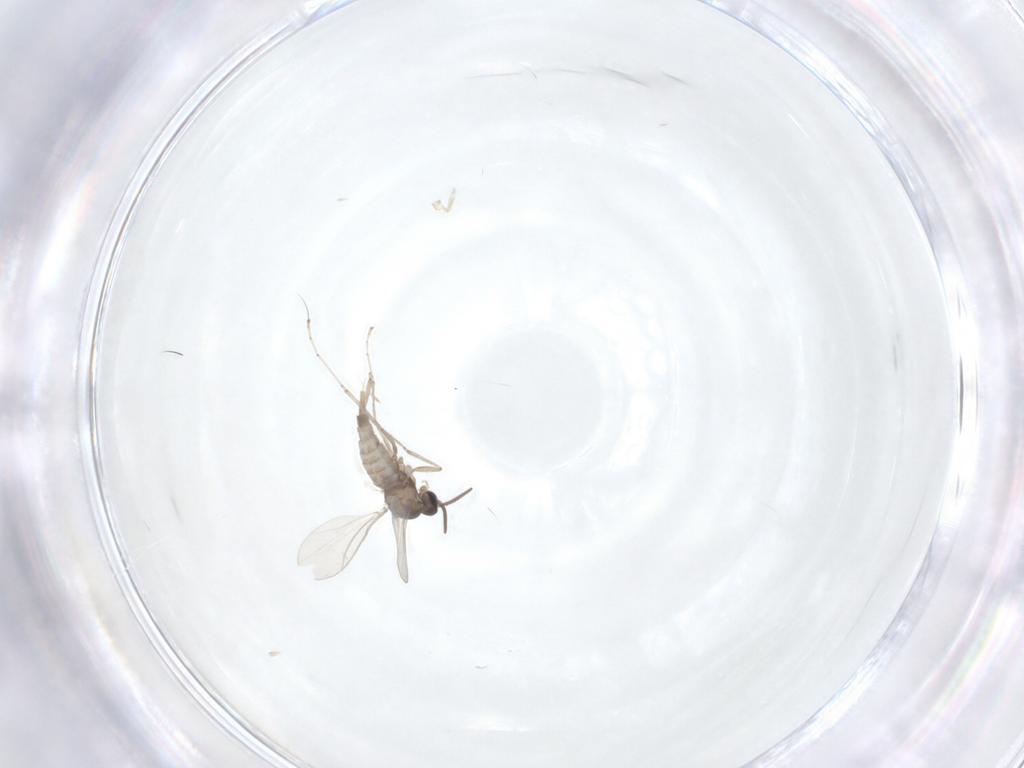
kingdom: Animalia
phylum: Arthropoda
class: Insecta
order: Diptera
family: Cecidomyiidae
